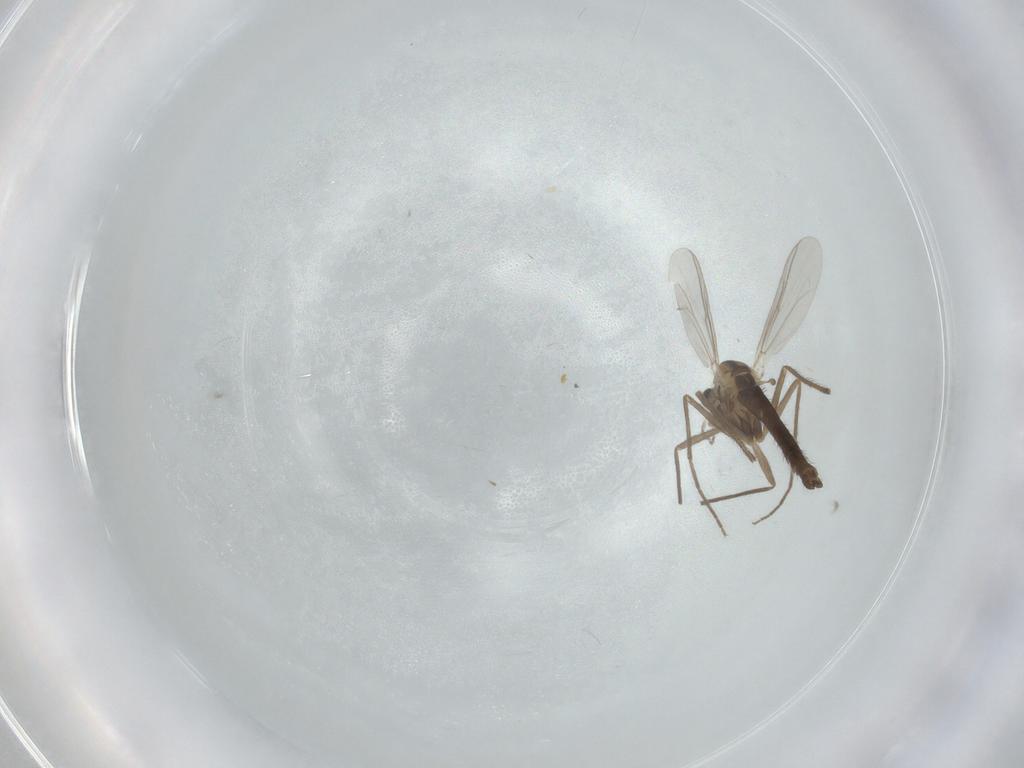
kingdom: Animalia
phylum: Arthropoda
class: Insecta
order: Diptera
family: Chironomidae
